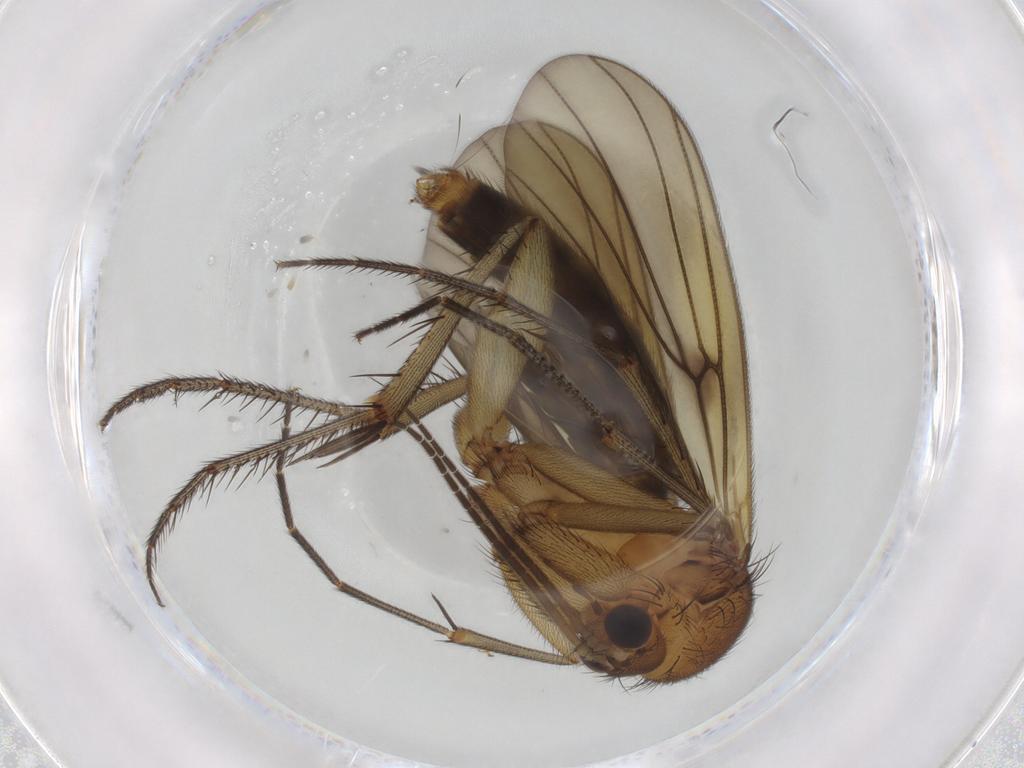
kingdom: Animalia
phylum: Arthropoda
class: Insecta
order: Diptera
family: Mycetophilidae
